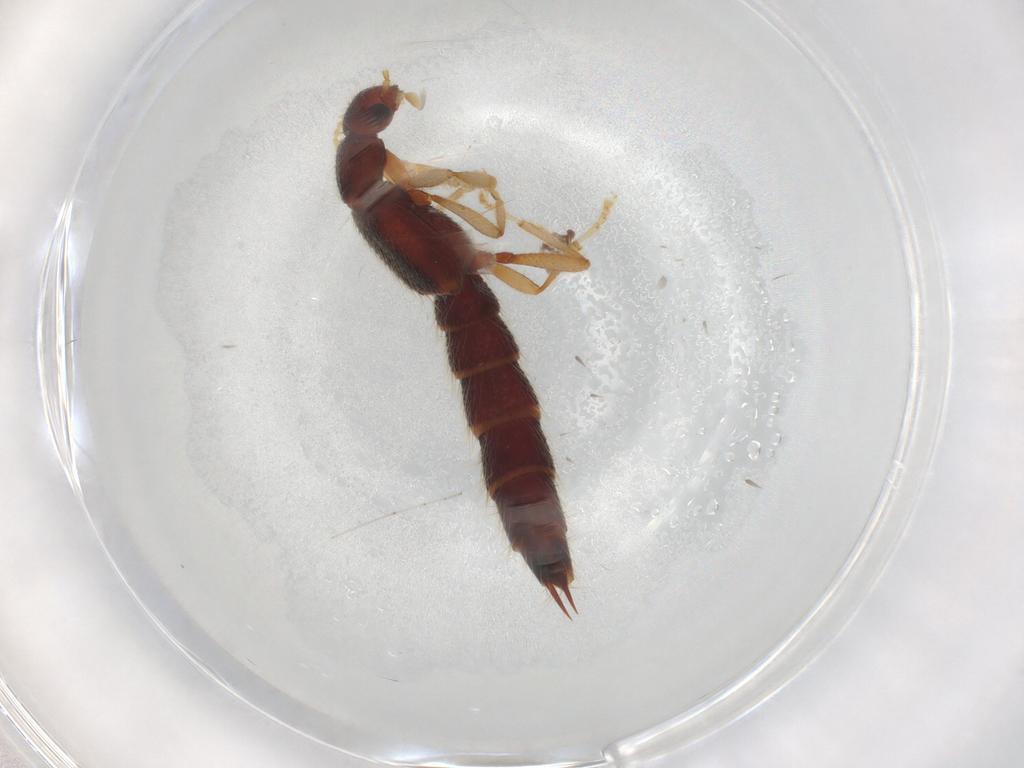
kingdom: Animalia
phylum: Arthropoda
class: Insecta
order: Coleoptera
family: Staphylinidae
